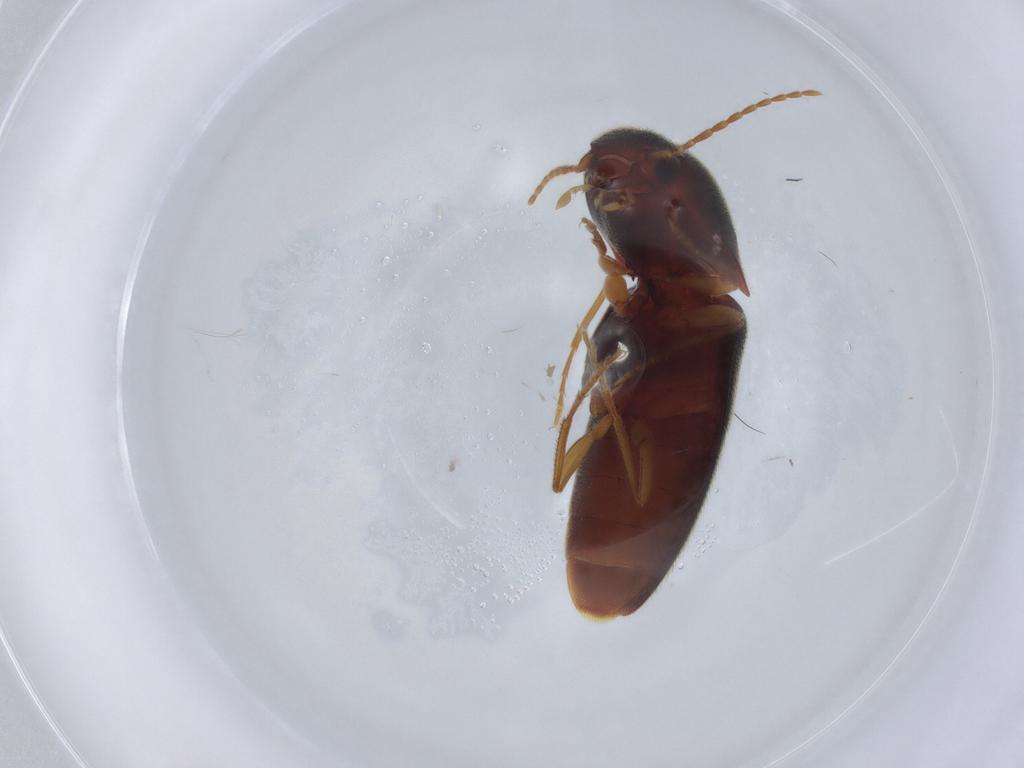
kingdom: Animalia
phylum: Arthropoda
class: Insecta
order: Coleoptera
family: Elateridae
